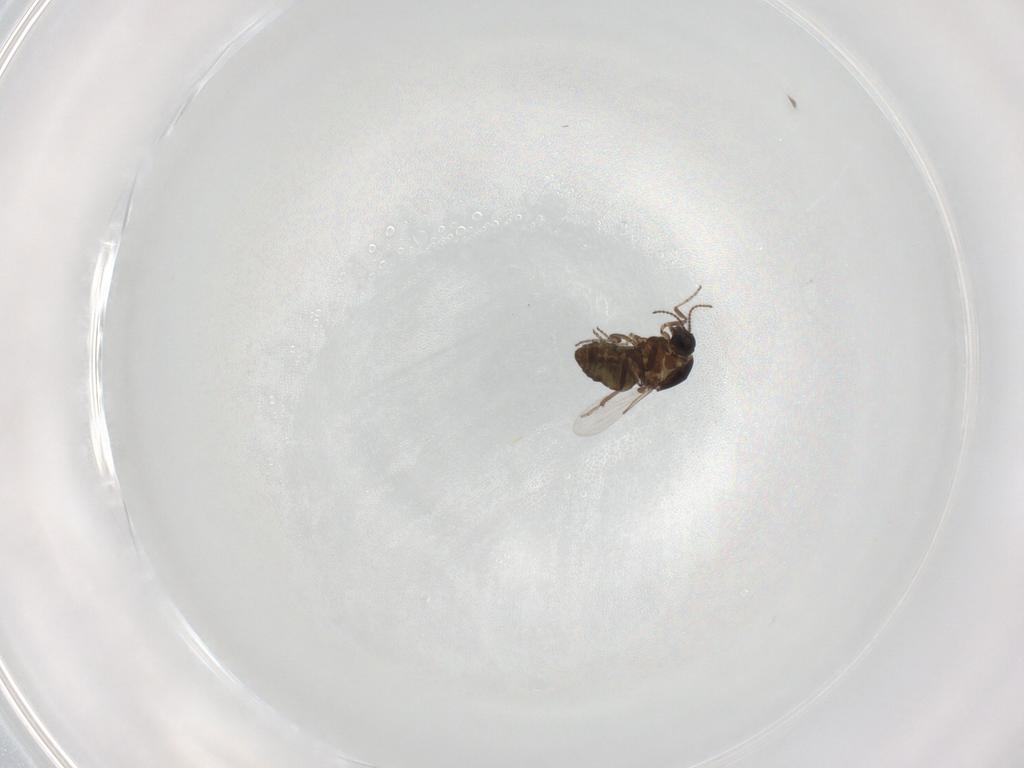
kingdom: Animalia
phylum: Arthropoda
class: Insecta
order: Diptera
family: Ceratopogonidae
